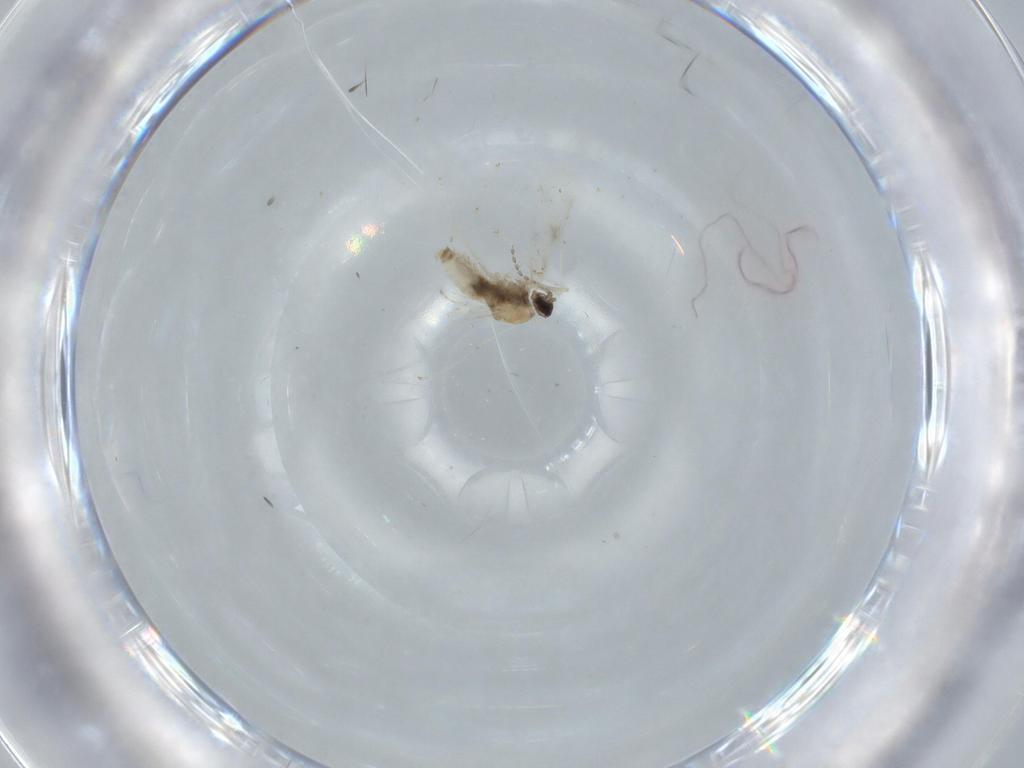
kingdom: Animalia
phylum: Arthropoda
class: Insecta
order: Diptera
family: Cecidomyiidae
